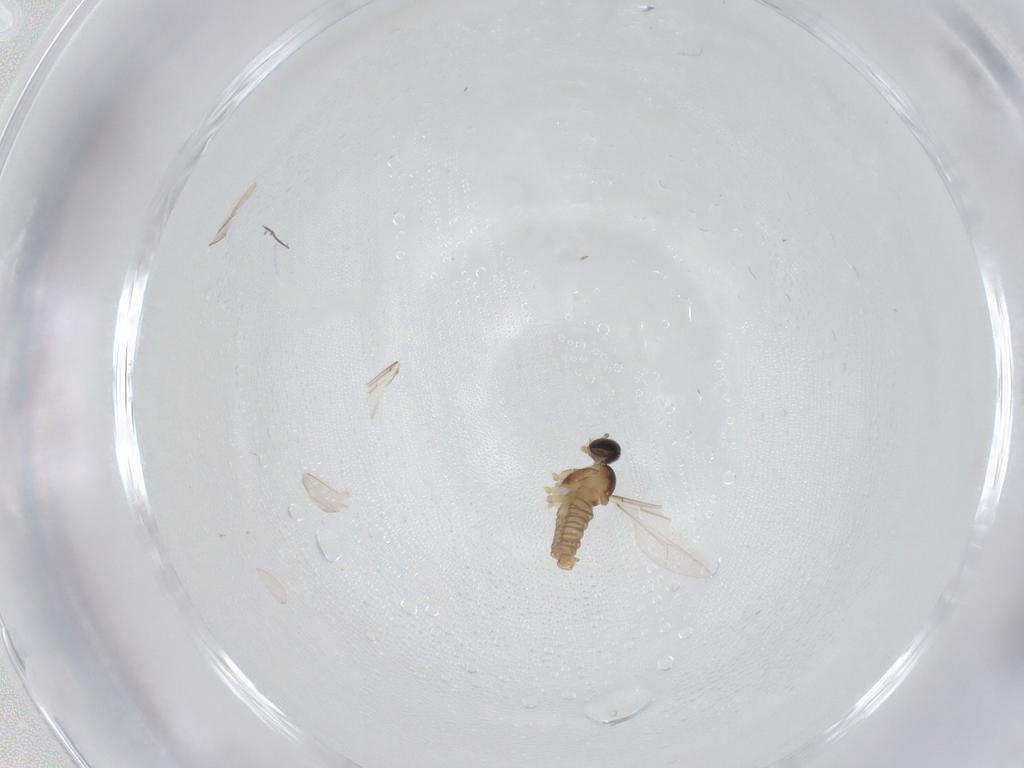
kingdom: Animalia
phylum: Arthropoda
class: Insecta
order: Diptera
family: Cecidomyiidae
